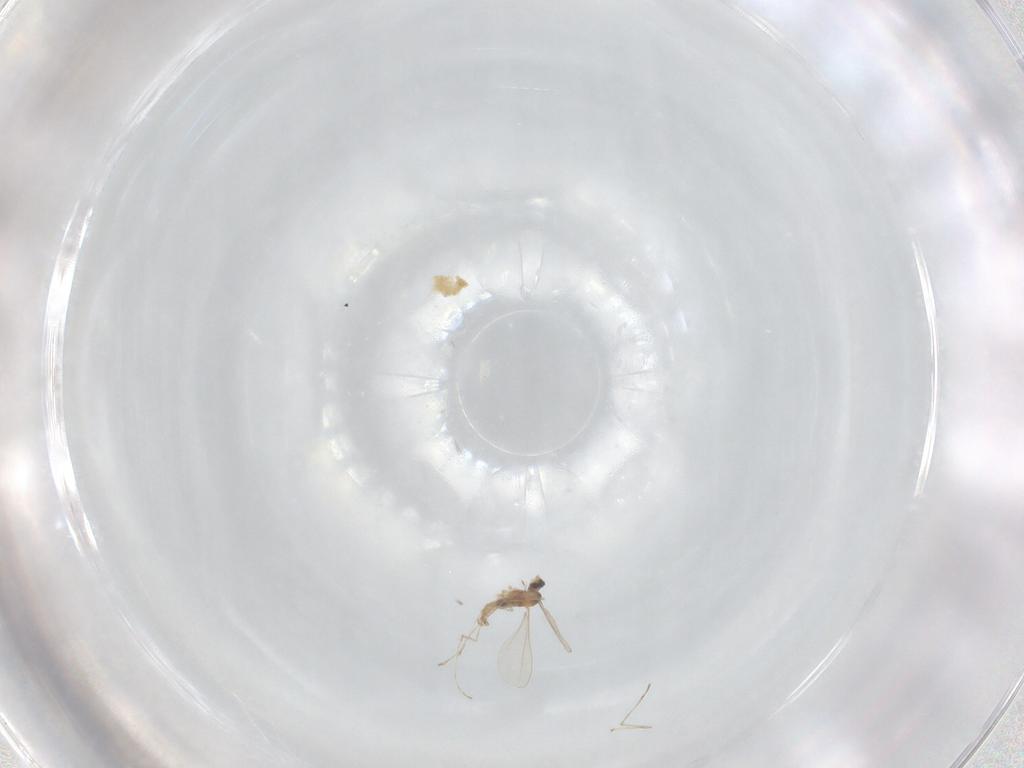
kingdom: Animalia
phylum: Arthropoda
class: Insecta
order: Diptera
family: Cecidomyiidae
